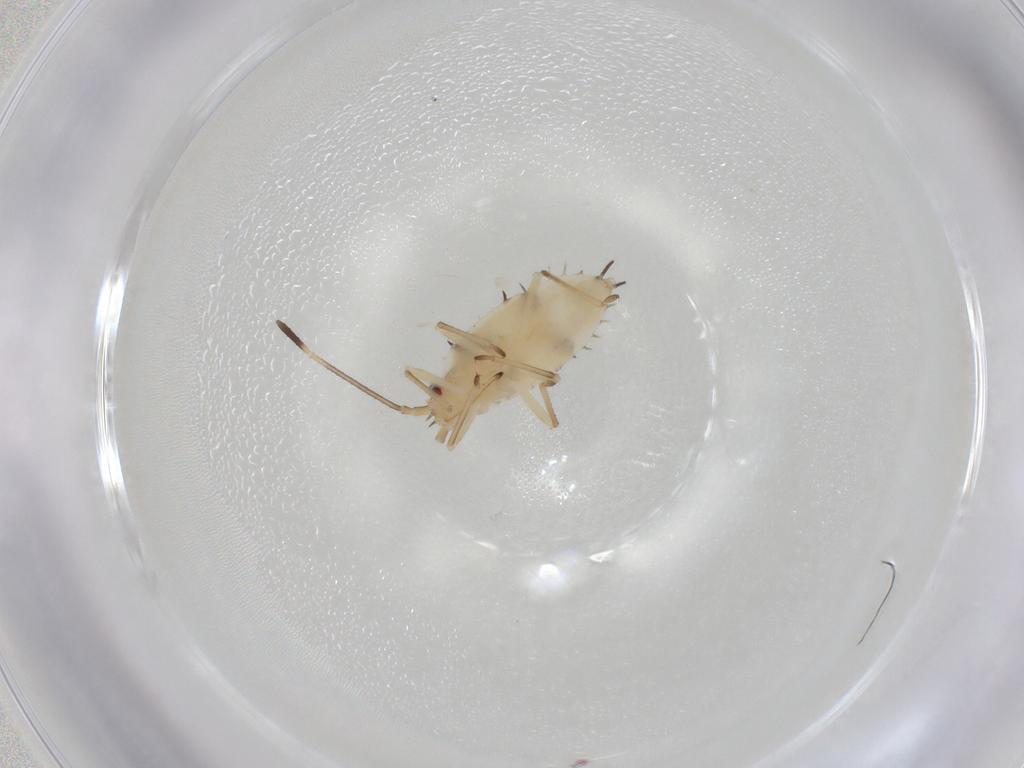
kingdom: Animalia
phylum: Arthropoda
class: Insecta
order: Hemiptera
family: Tingidae
